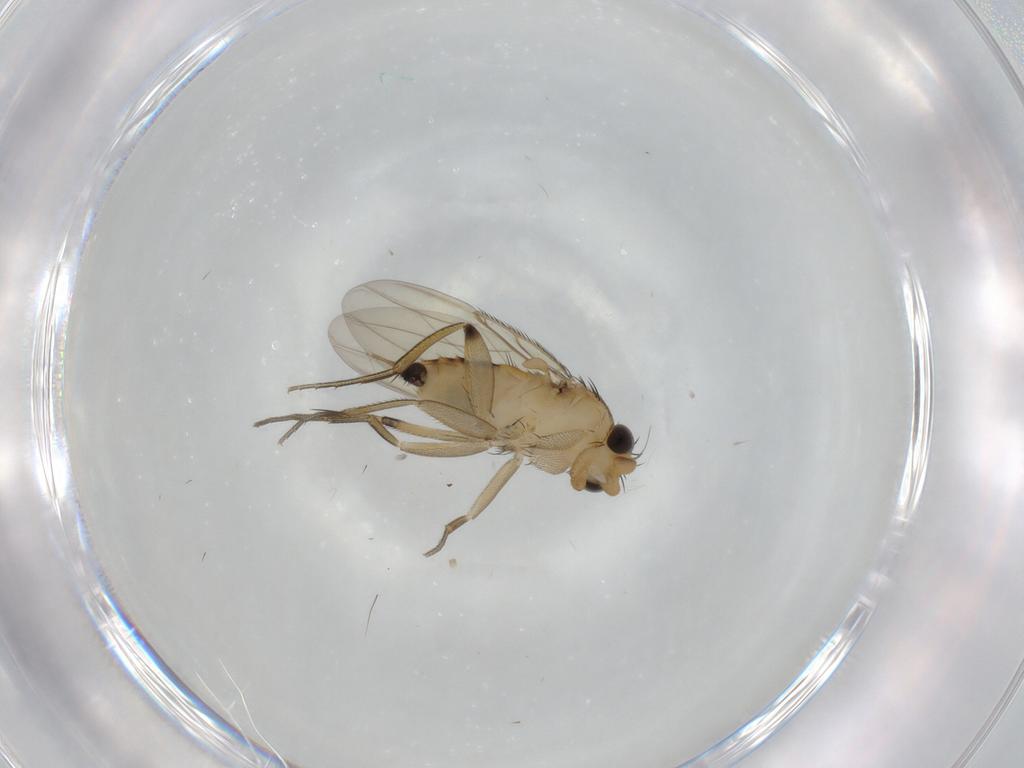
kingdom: Animalia
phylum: Arthropoda
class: Insecta
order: Diptera
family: Phoridae
